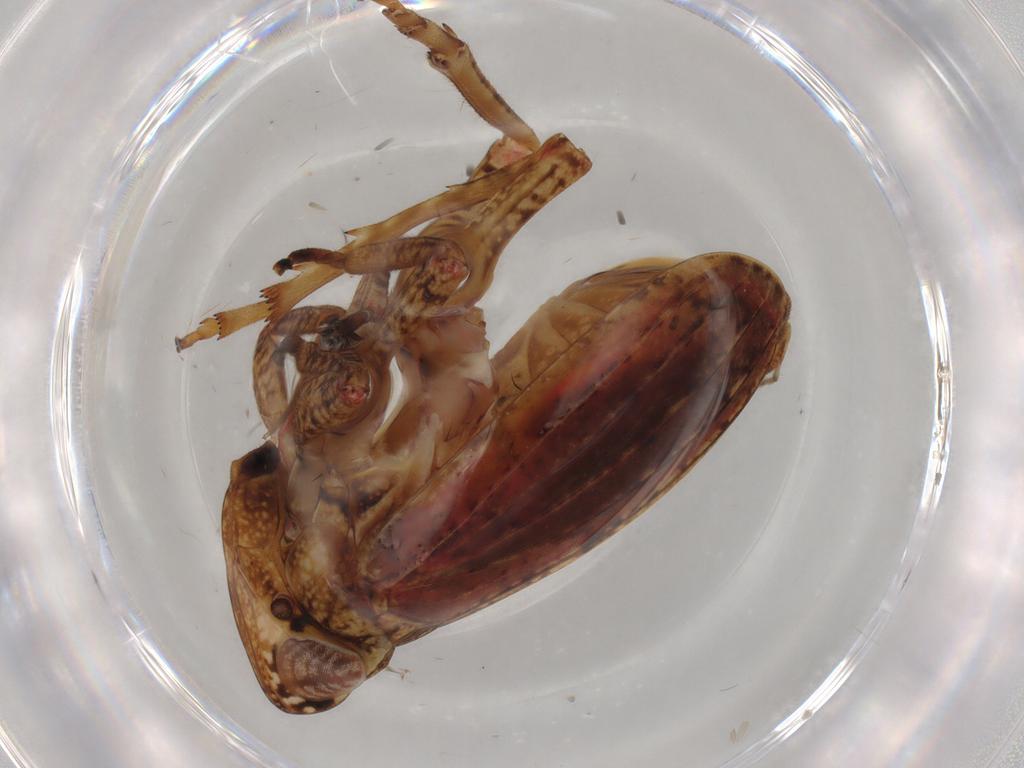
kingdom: Animalia
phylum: Arthropoda
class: Insecta
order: Hemiptera
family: Tropiduchidae
